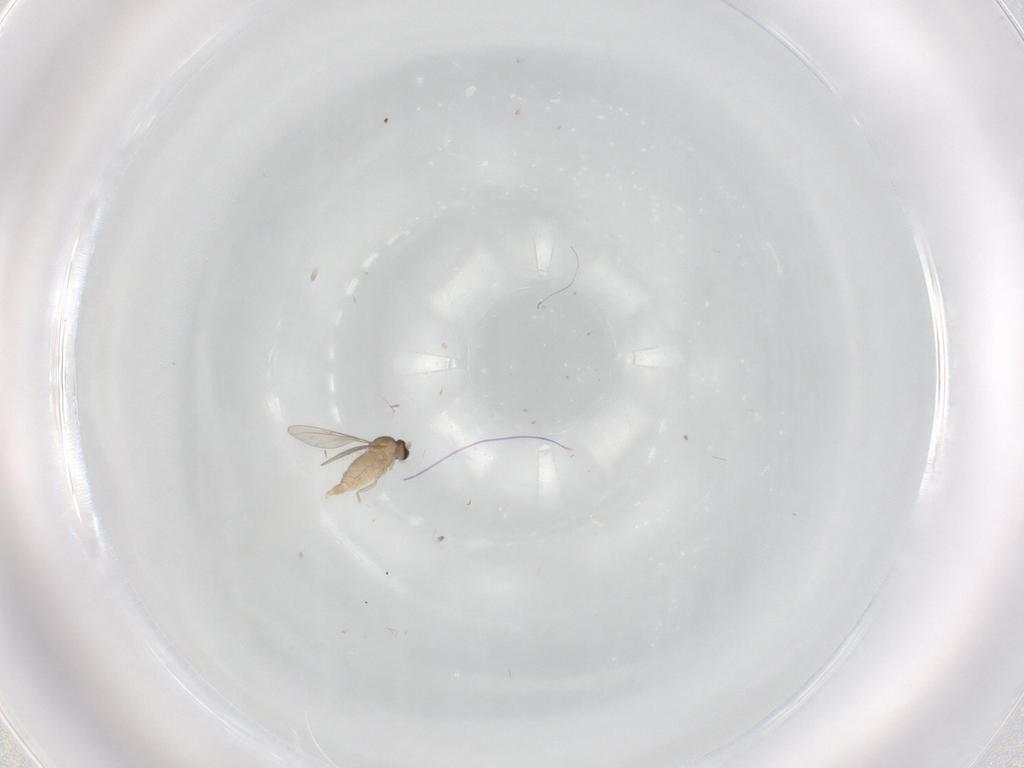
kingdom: Animalia
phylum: Arthropoda
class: Insecta
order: Diptera
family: Cecidomyiidae
